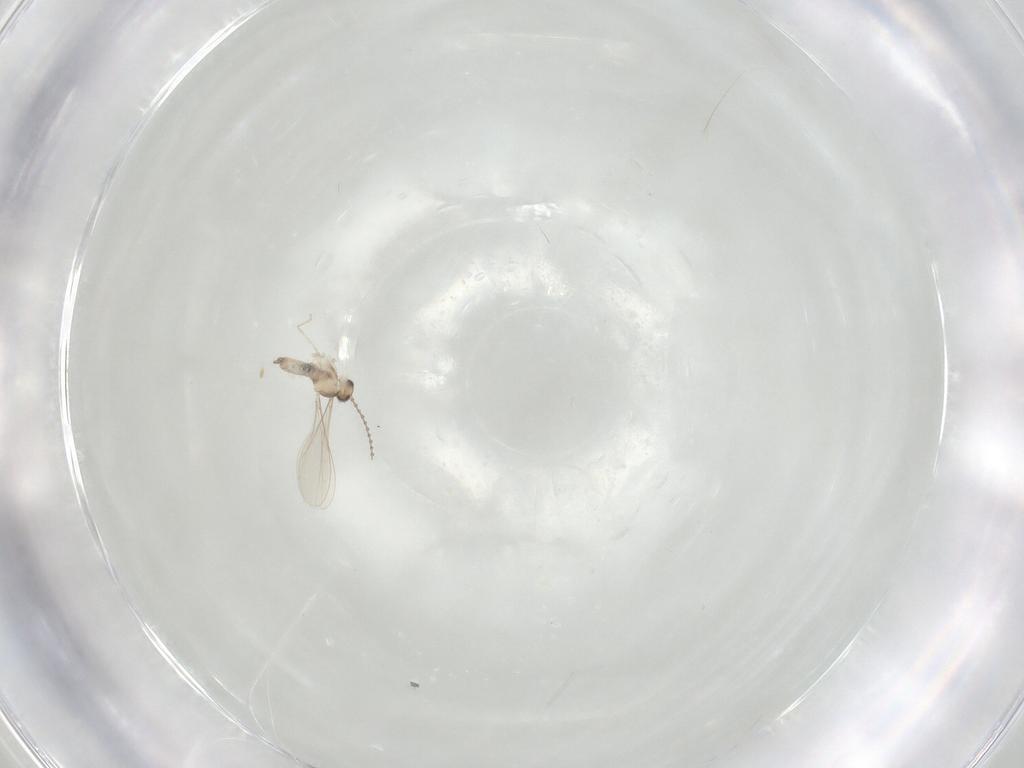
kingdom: Animalia
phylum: Arthropoda
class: Insecta
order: Diptera
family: Cecidomyiidae
